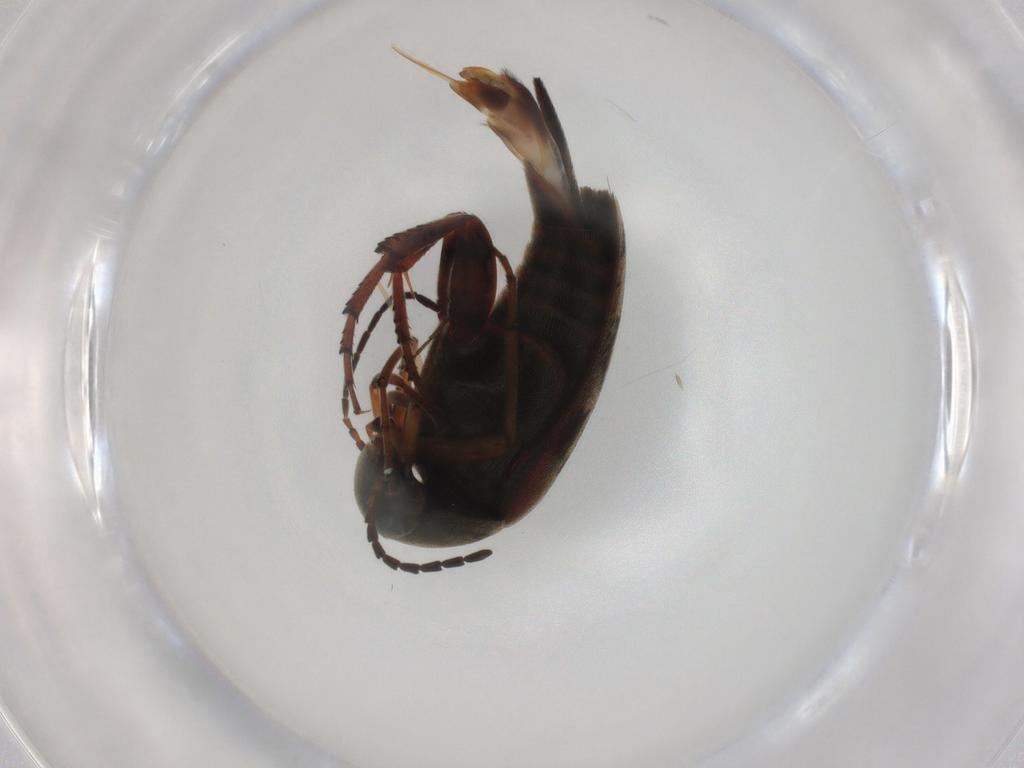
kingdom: Animalia
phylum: Arthropoda
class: Insecta
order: Coleoptera
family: Mordellidae
